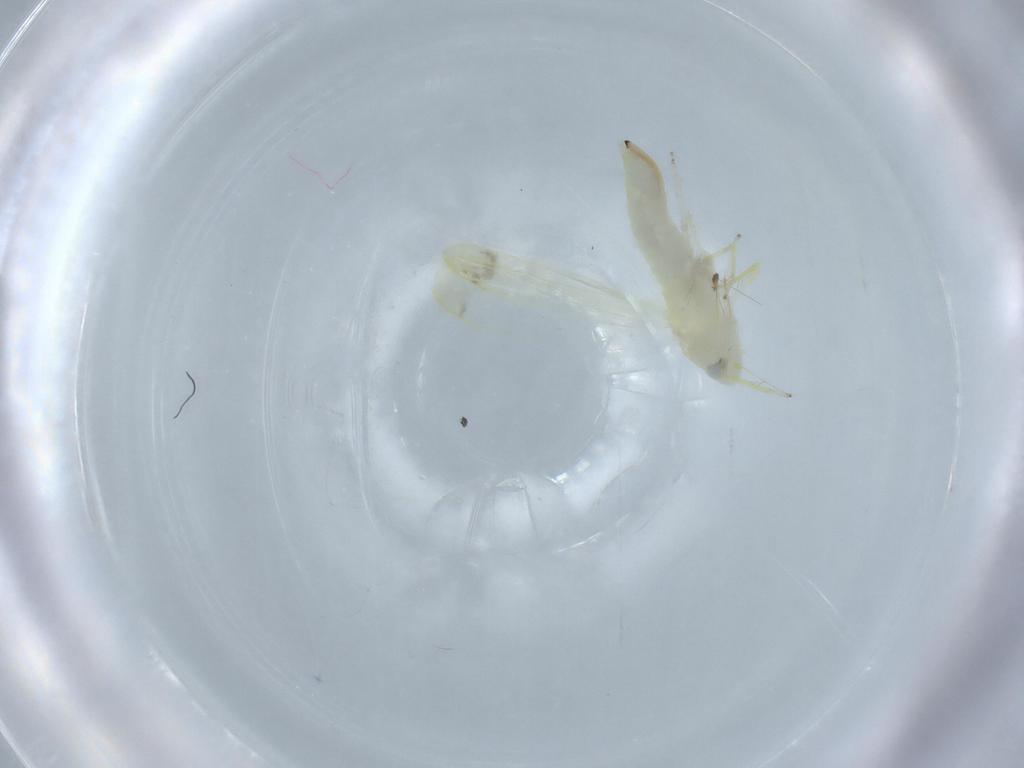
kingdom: Animalia
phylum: Arthropoda
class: Insecta
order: Hemiptera
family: Cicadellidae
